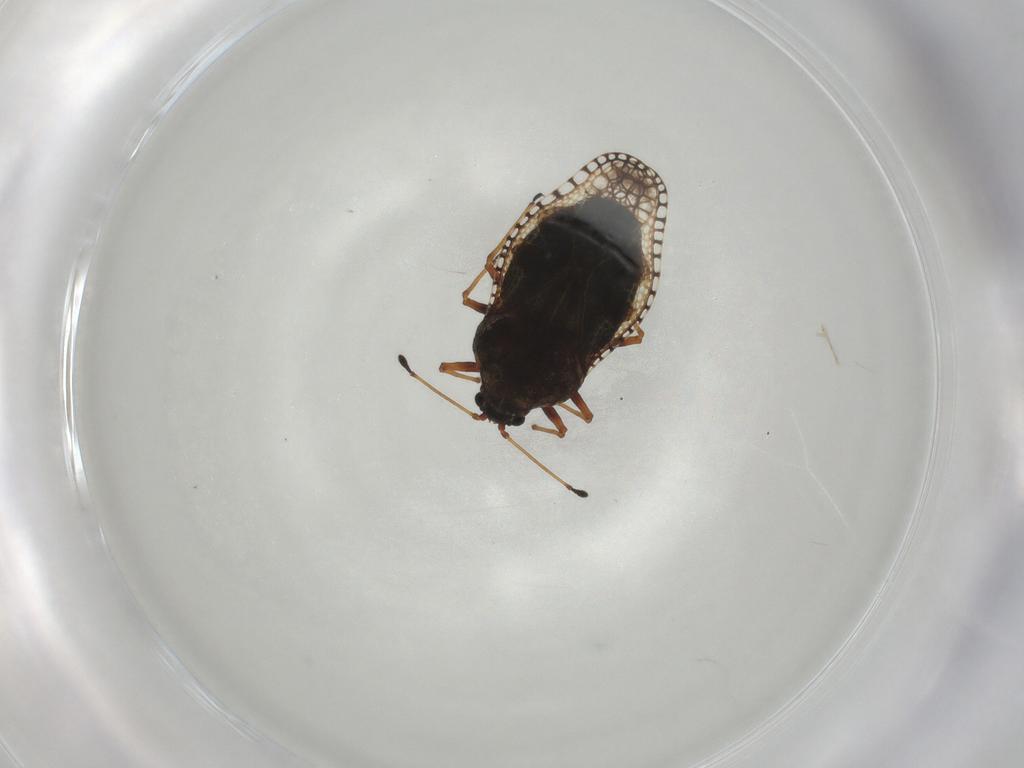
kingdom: Animalia
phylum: Arthropoda
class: Insecta
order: Hemiptera
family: Tingidae
